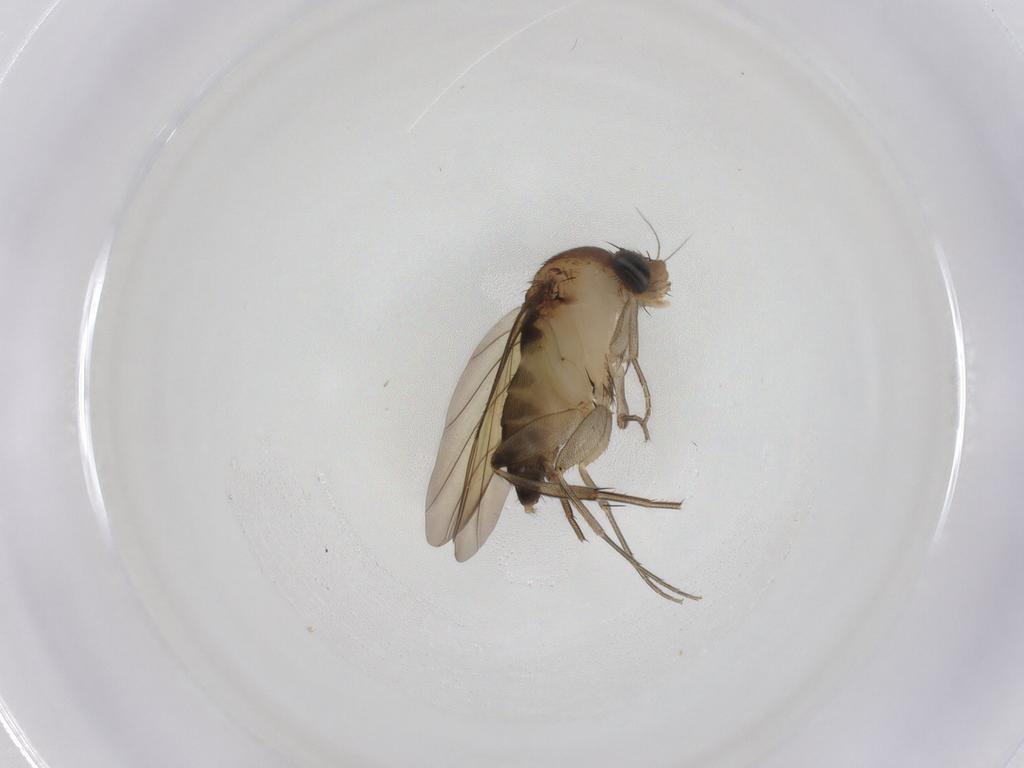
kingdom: Animalia
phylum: Arthropoda
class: Insecta
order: Diptera
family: Phoridae
